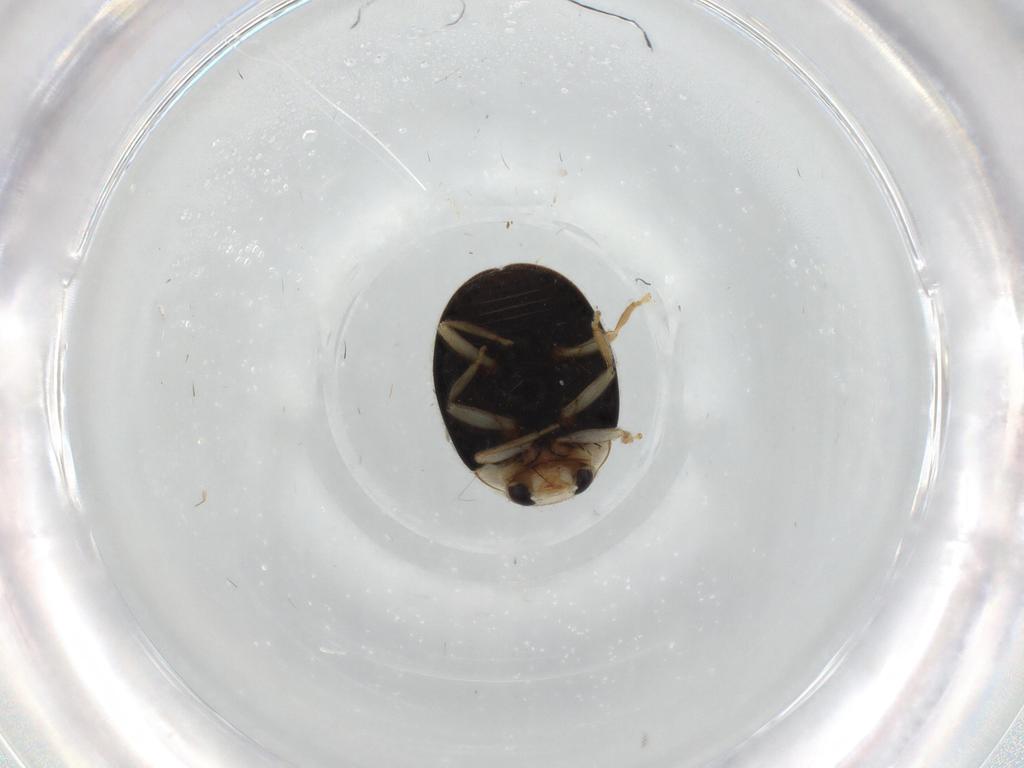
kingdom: Animalia
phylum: Arthropoda
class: Insecta
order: Coleoptera
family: Coccinellidae
